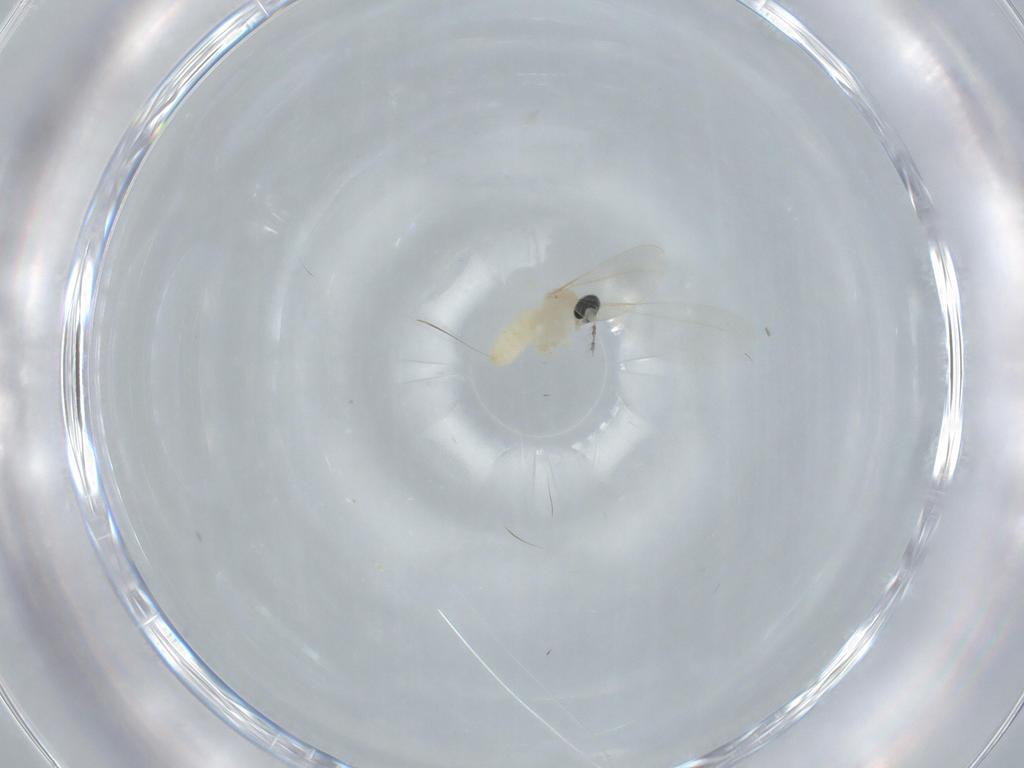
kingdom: Animalia
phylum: Arthropoda
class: Insecta
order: Diptera
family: Cecidomyiidae
